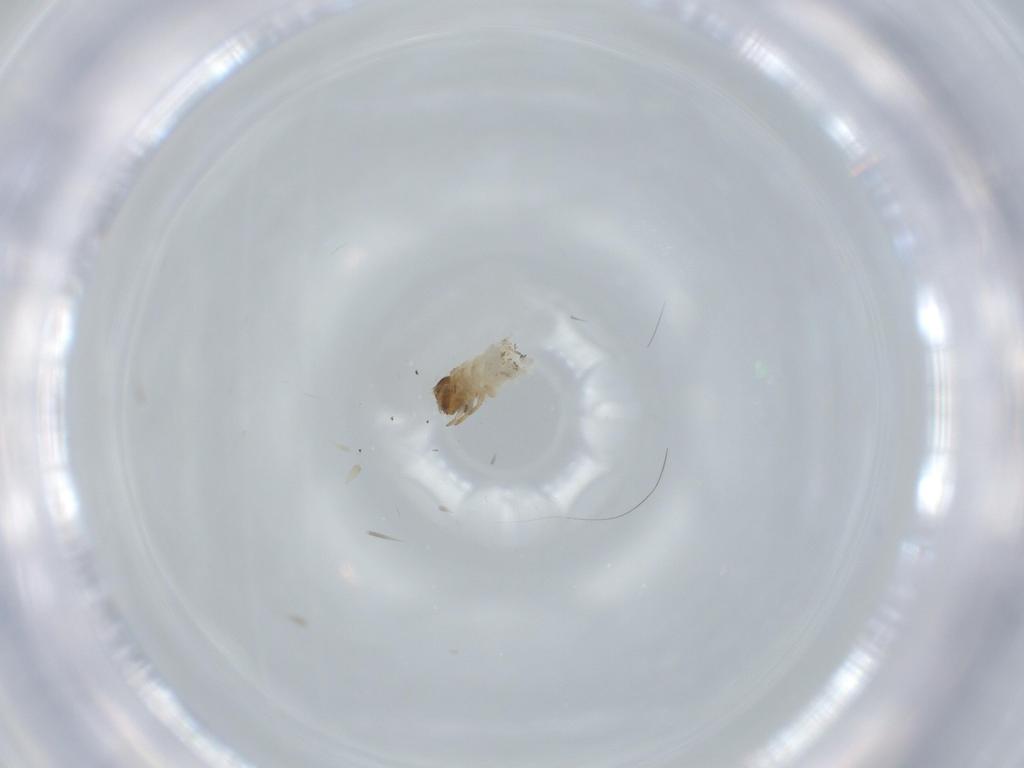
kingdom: Animalia
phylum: Arthropoda
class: Insecta
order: Coleoptera
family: Chrysomelidae
